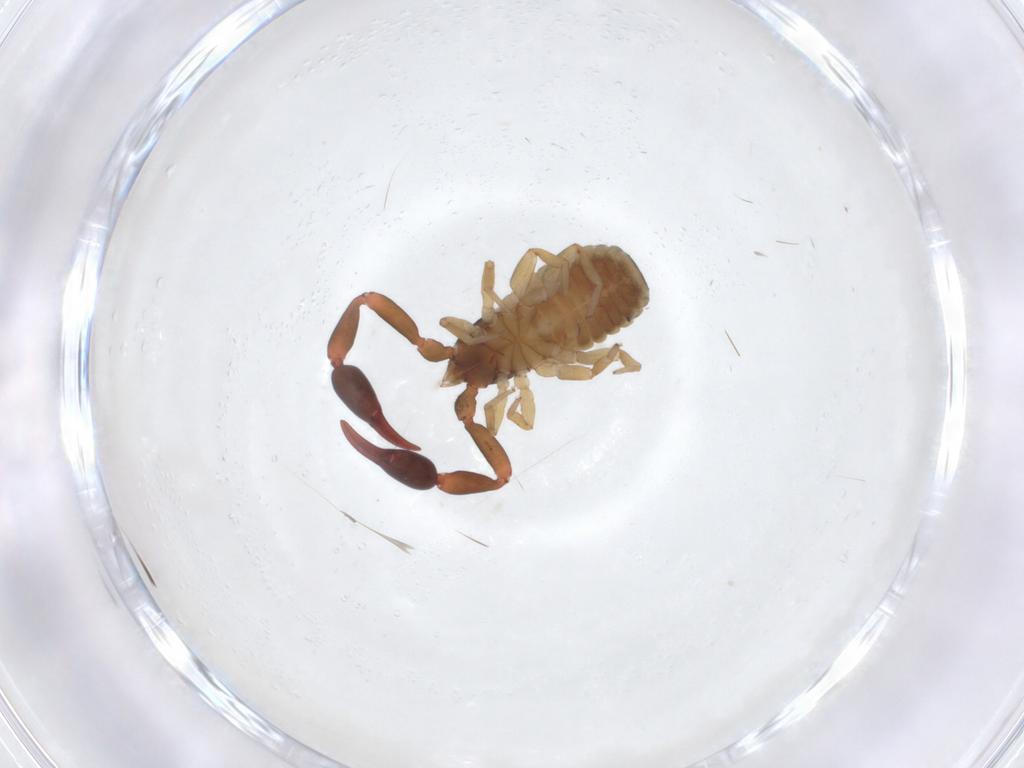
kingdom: Animalia
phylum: Arthropoda
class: Arachnida
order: Pseudoscorpiones
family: Withiidae
